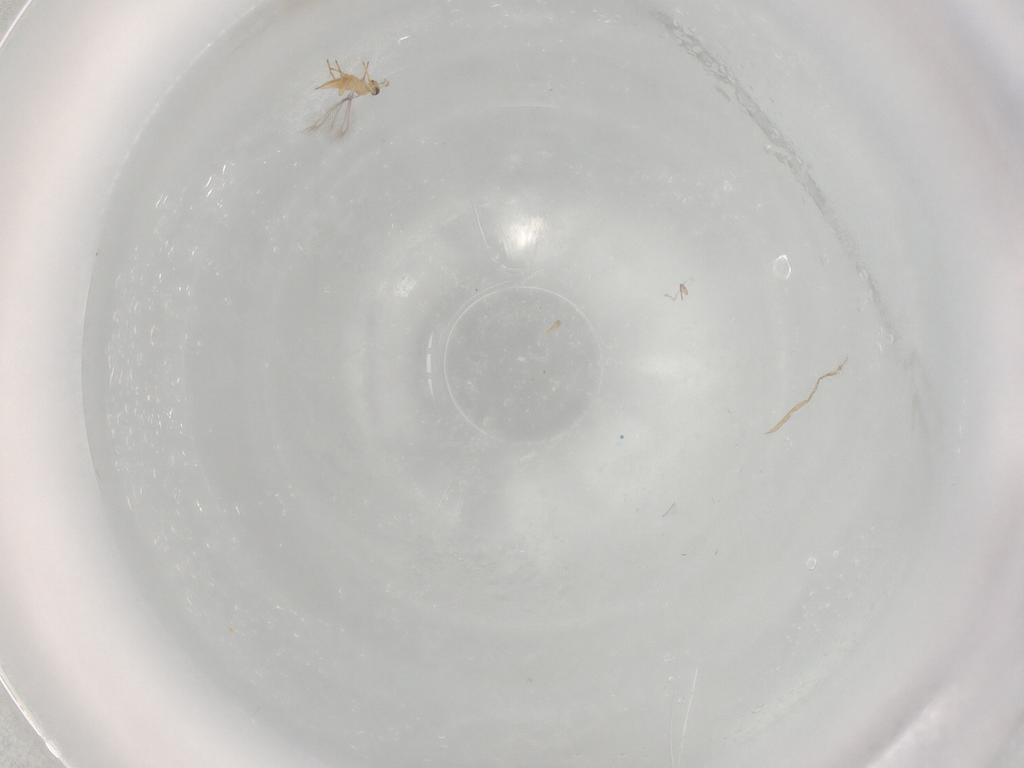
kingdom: Animalia
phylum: Arthropoda
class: Insecta
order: Hymenoptera
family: Mymaridae
